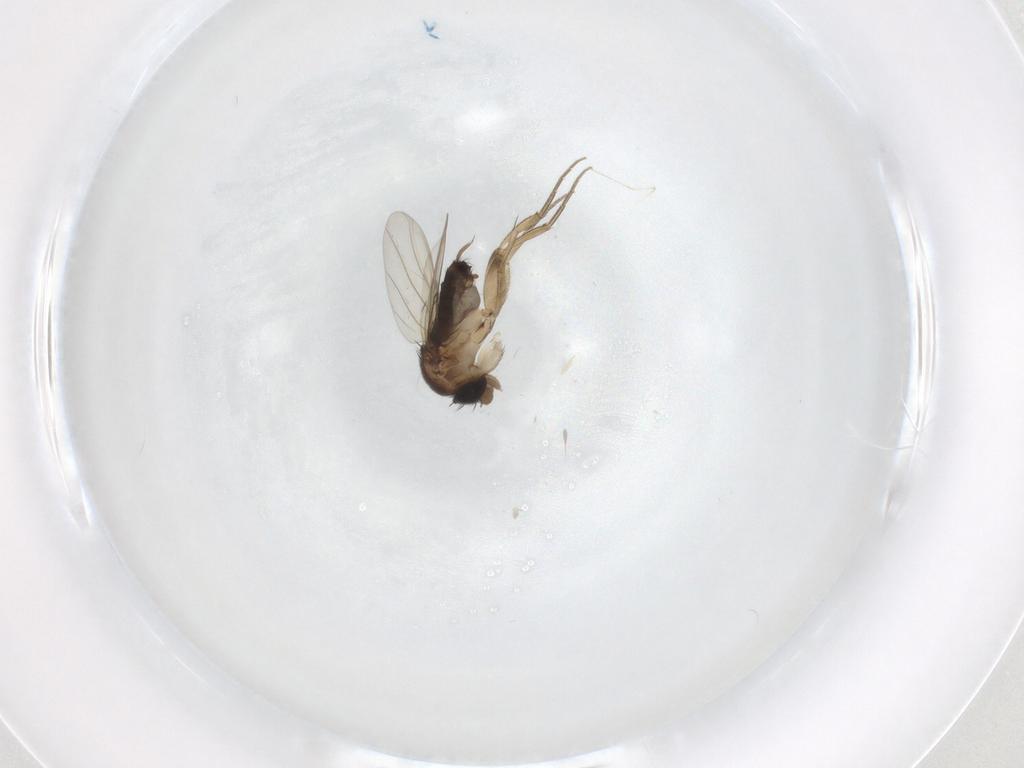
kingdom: Animalia
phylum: Arthropoda
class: Insecta
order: Diptera
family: Phoridae
